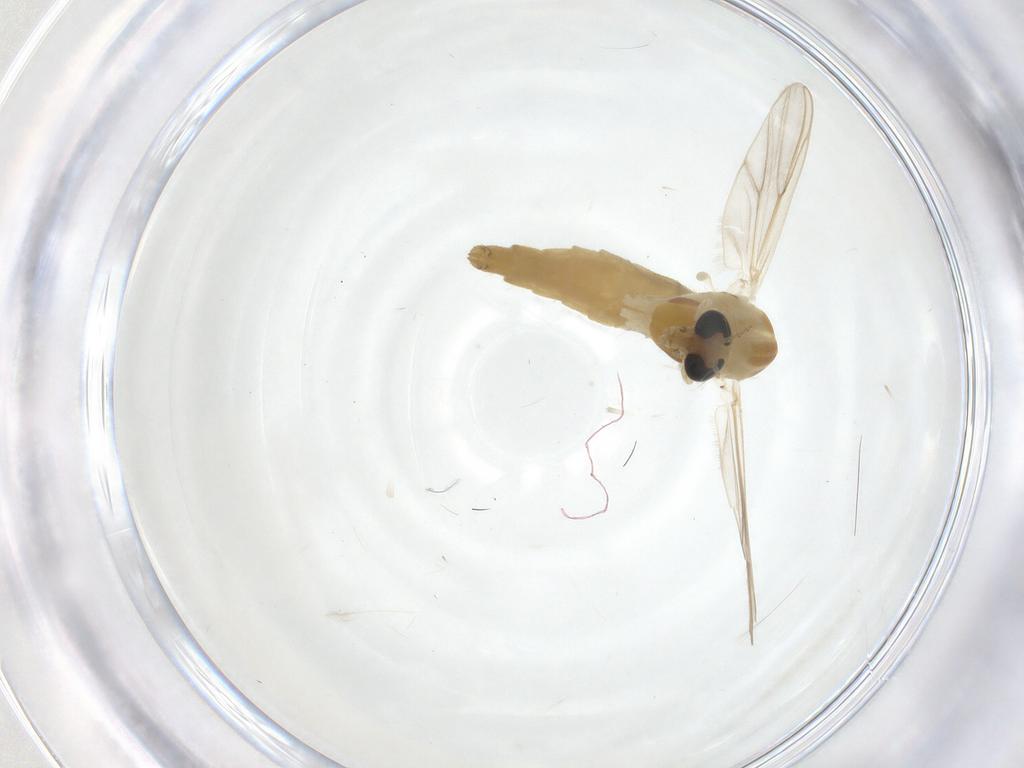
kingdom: Animalia
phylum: Arthropoda
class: Insecta
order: Diptera
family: Chironomidae
